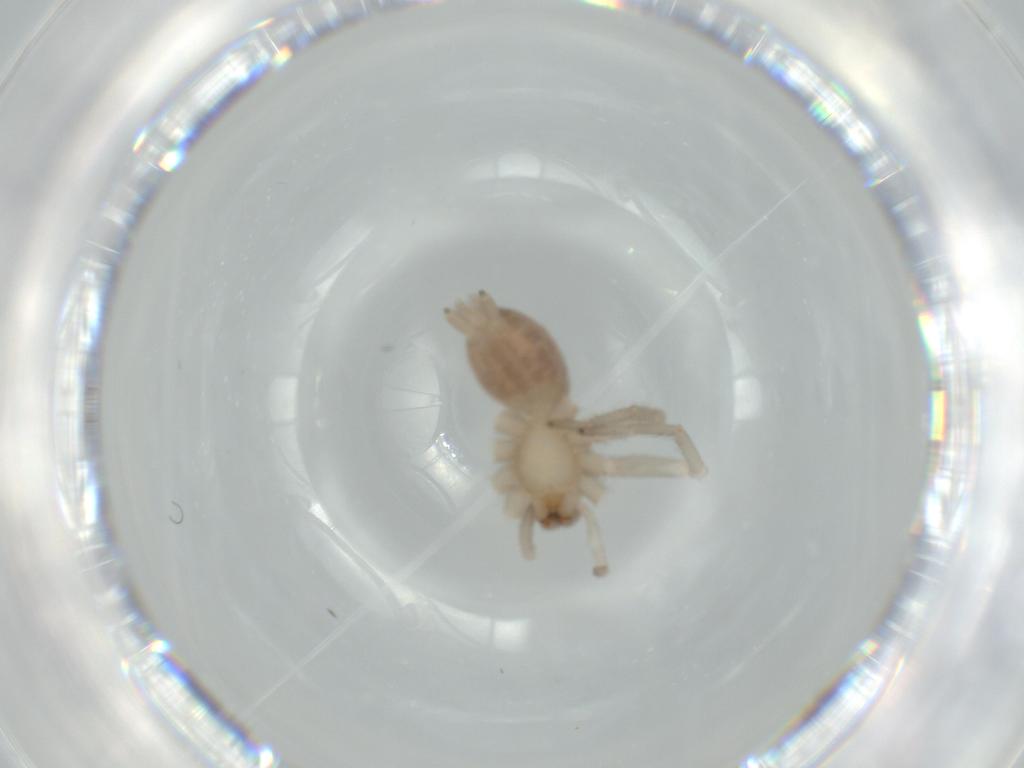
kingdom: Animalia
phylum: Arthropoda
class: Arachnida
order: Araneae
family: Gnaphosidae
